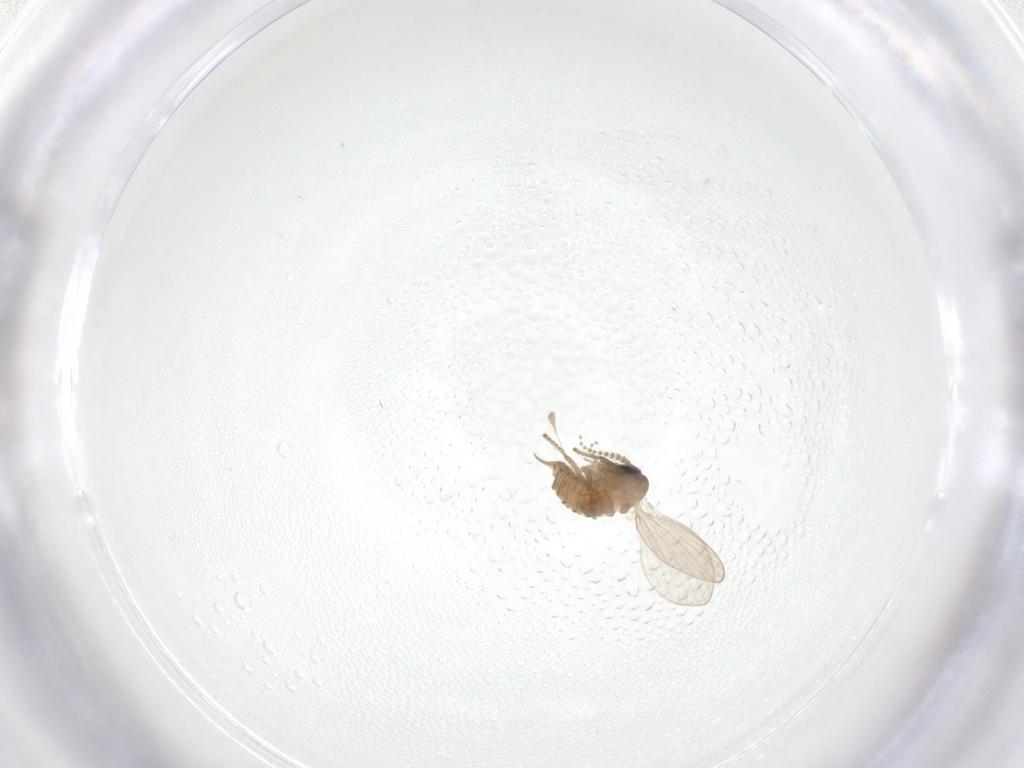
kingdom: Animalia
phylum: Arthropoda
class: Insecta
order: Diptera
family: Psychodidae
